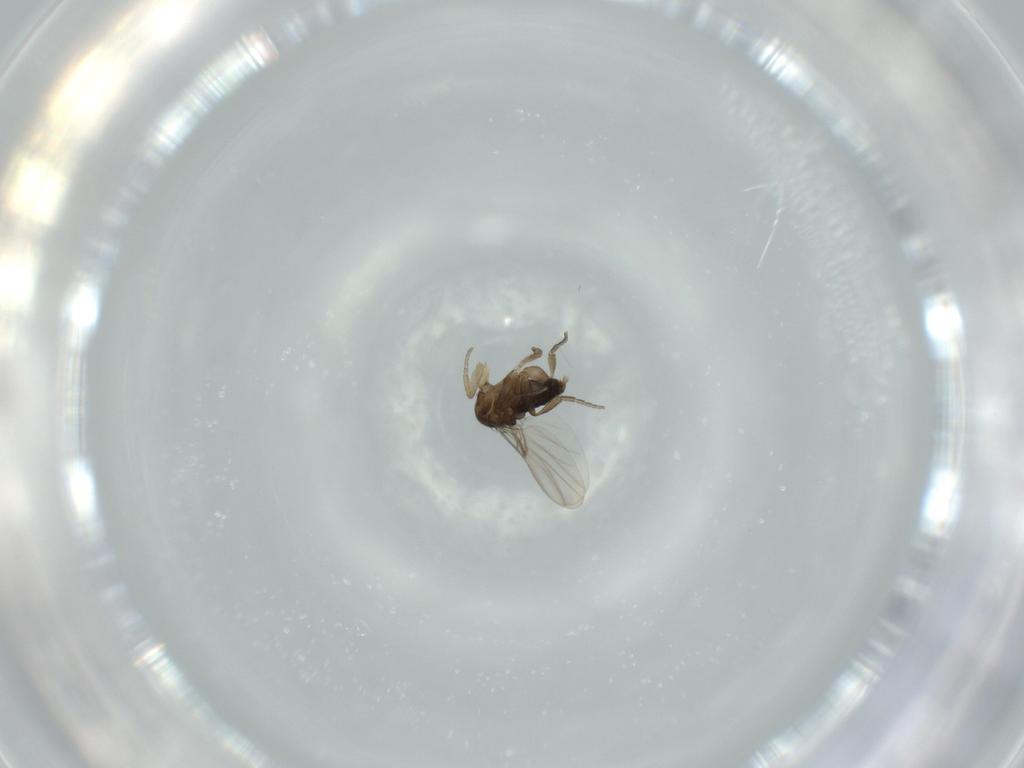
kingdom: Animalia
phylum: Arthropoda
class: Insecta
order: Diptera
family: Phoridae
